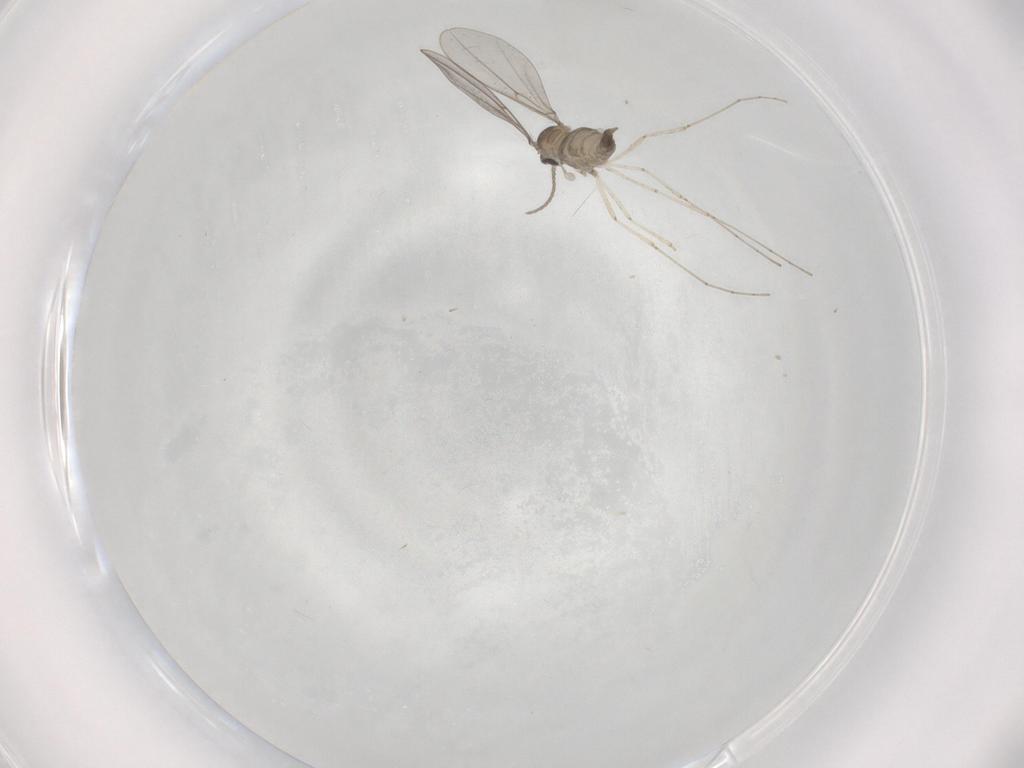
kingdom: Animalia
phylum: Arthropoda
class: Insecta
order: Diptera
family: Cecidomyiidae
